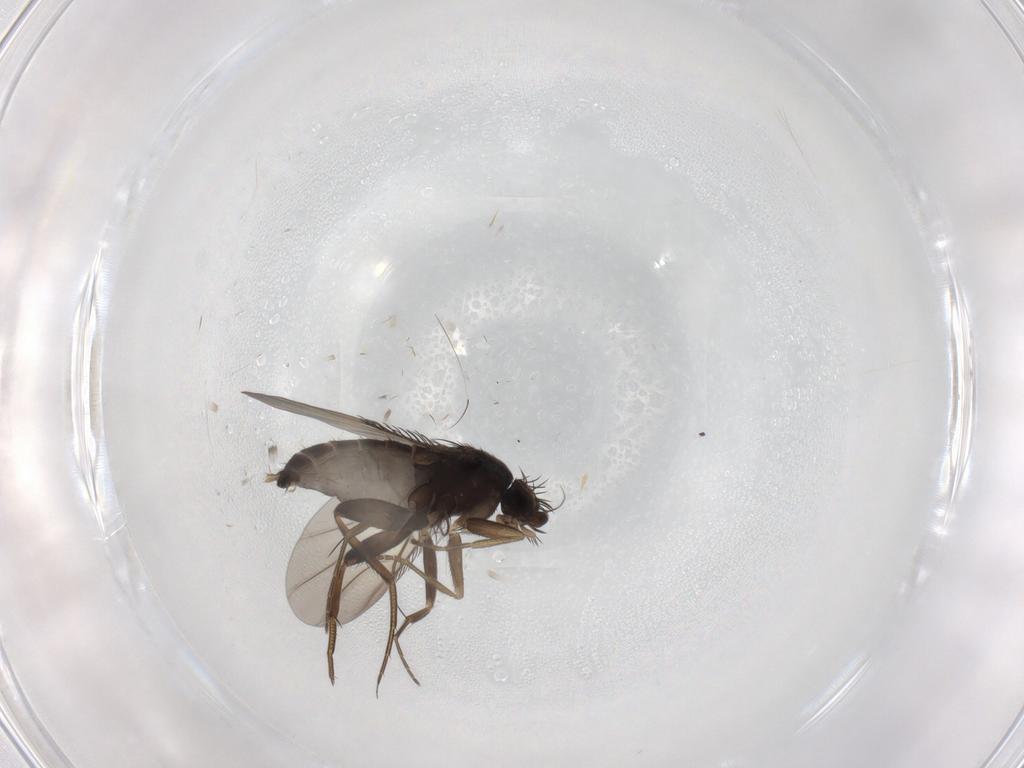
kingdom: Animalia
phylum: Arthropoda
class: Insecta
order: Diptera
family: Phoridae
